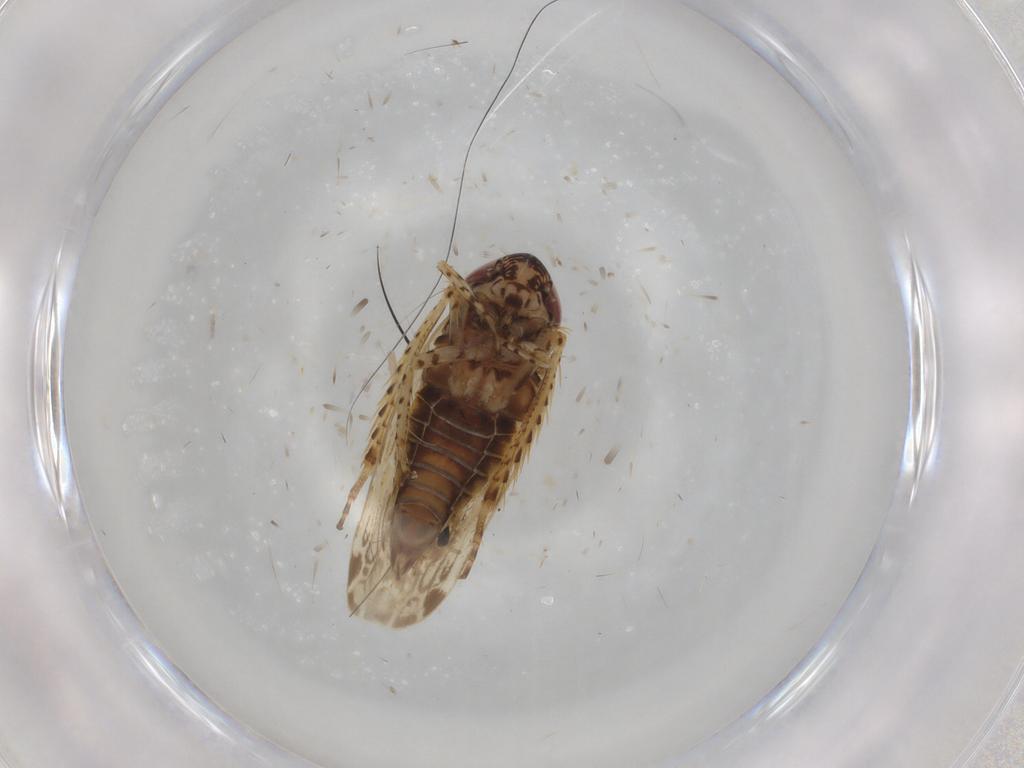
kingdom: Animalia
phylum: Arthropoda
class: Insecta
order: Hemiptera
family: Cicadellidae
